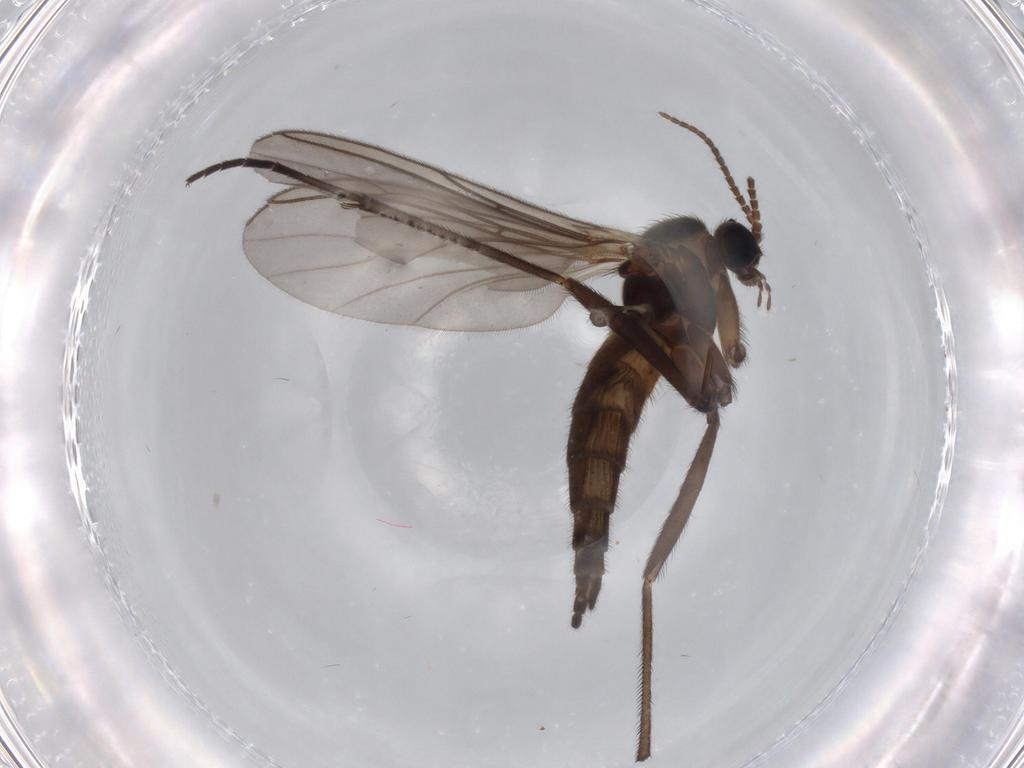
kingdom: Animalia
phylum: Arthropoda
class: Insecta
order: Diptera
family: Sciaridae
